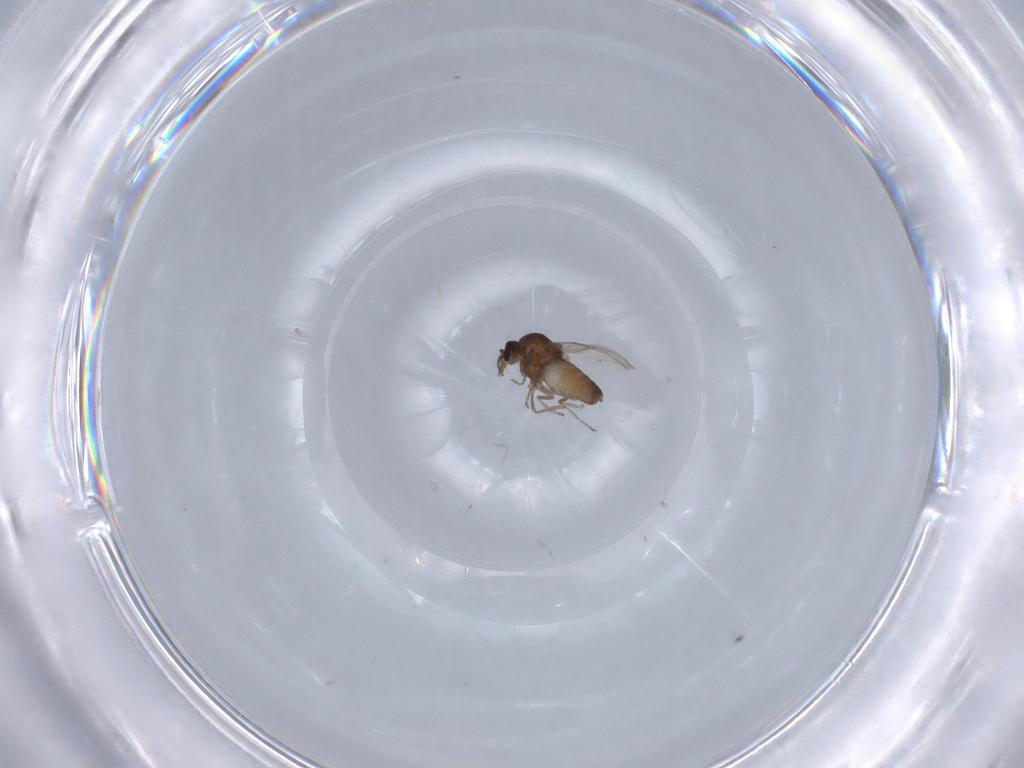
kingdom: Animalia
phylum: Arthropoda
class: Insecta
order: Diptera
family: Ceratopogonidae
